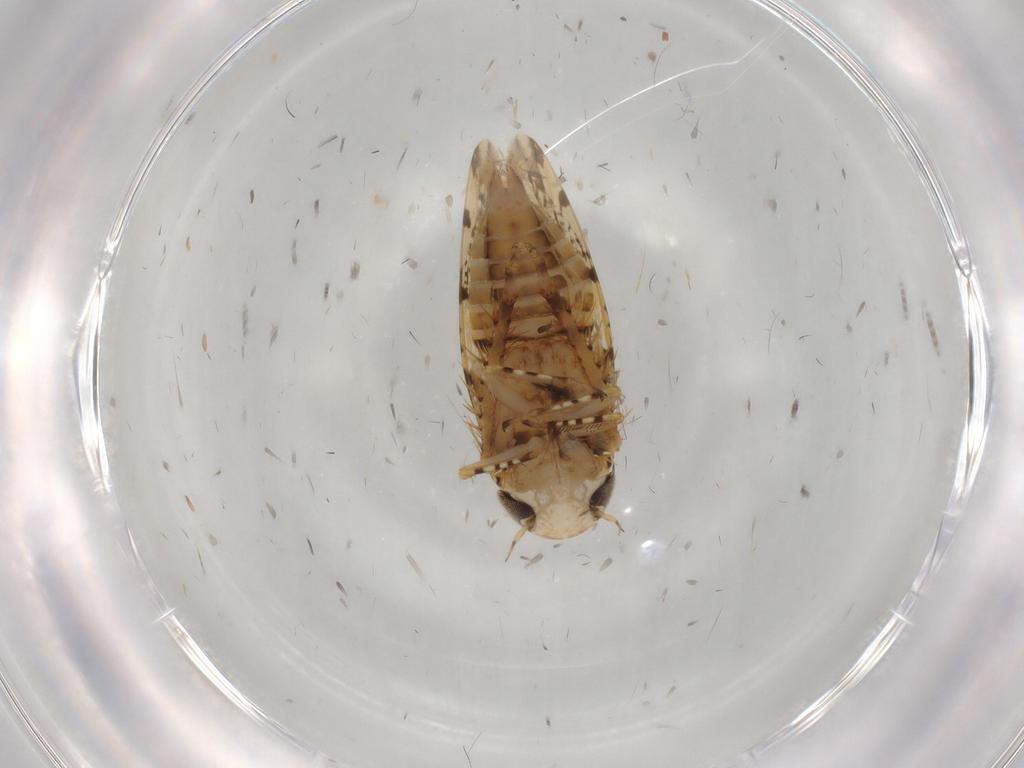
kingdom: Animalia
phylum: Arthropoda
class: Insecta
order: Hemiptera
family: Cicadellidae
